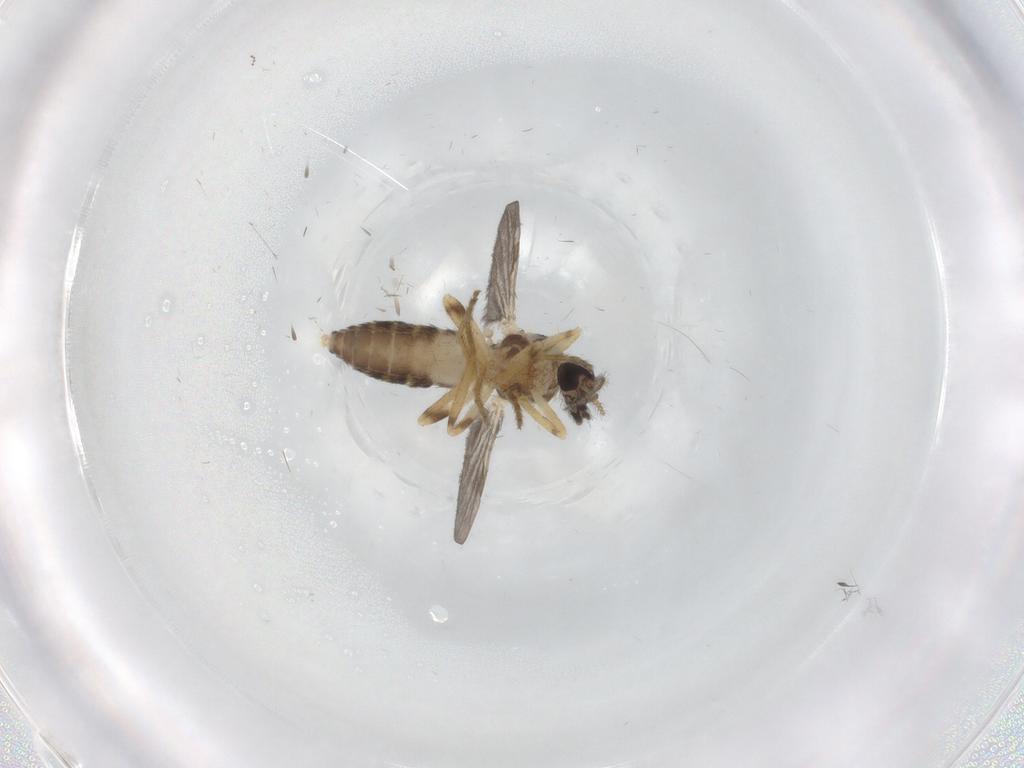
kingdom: Animalia
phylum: Arthropoda
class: Insecta
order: Diptera
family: Ceratopogonidae
